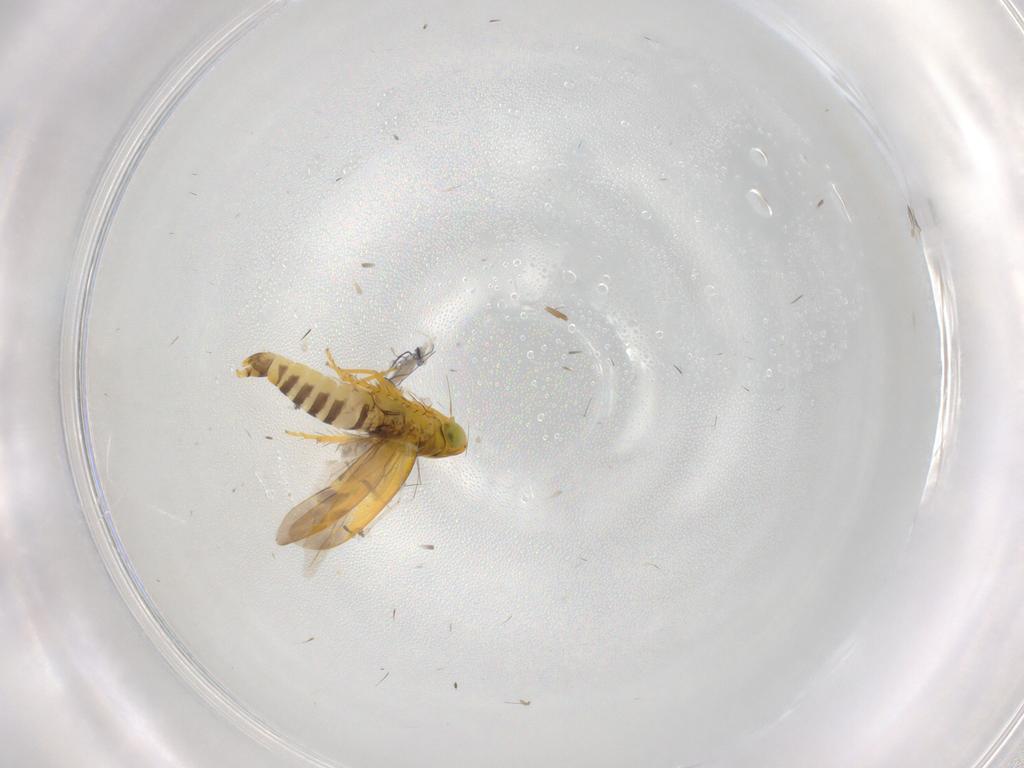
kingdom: Animalia
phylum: Arthropoda
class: Insecta
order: Hemiptera
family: Cicadellidae
